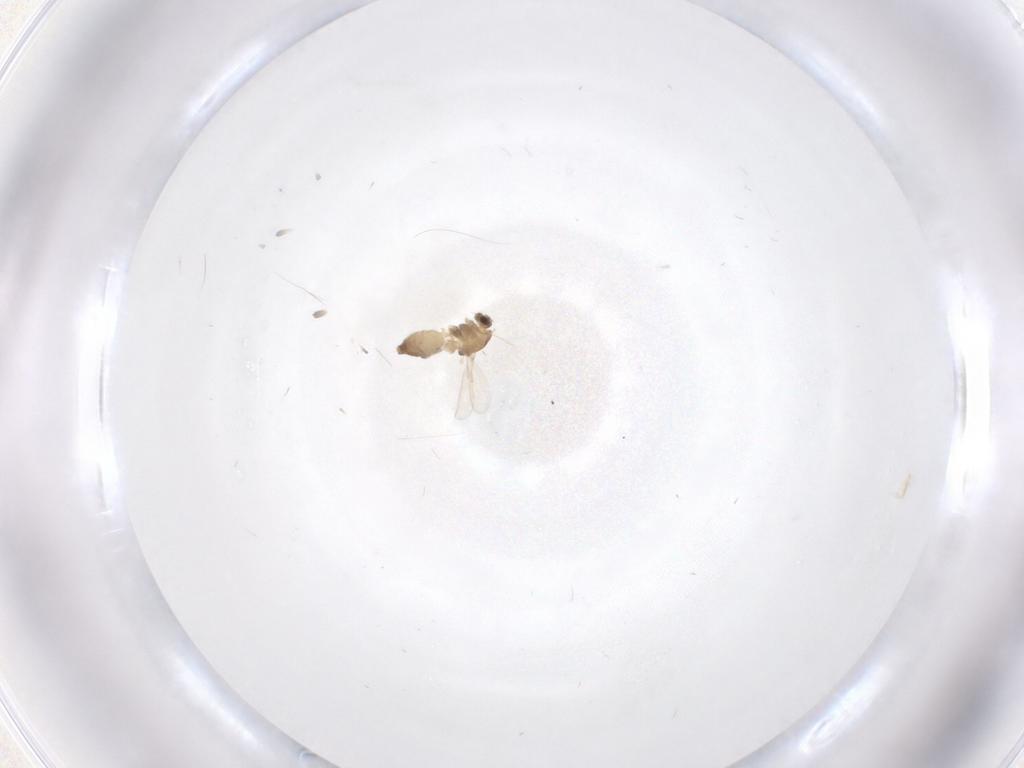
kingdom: Animalia
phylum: Arthropoda
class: Insecta
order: Diptera
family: Chironomidae
